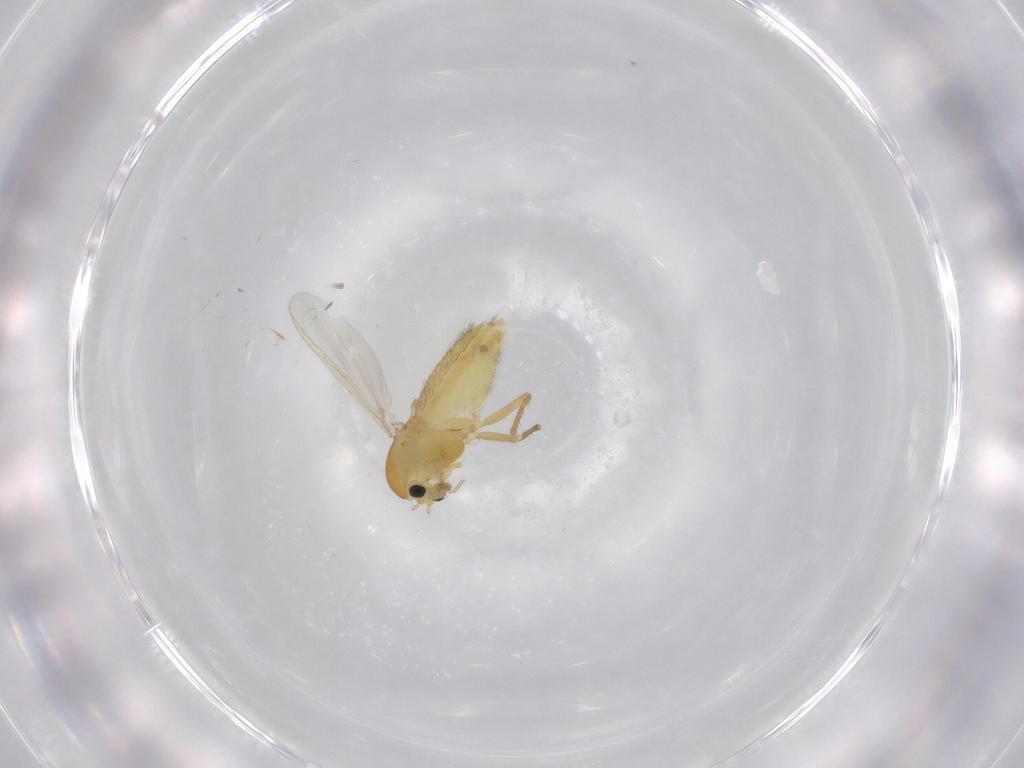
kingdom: Animalia
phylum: Arthropoda
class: Insecta
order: Diptera
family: Chironomidae
